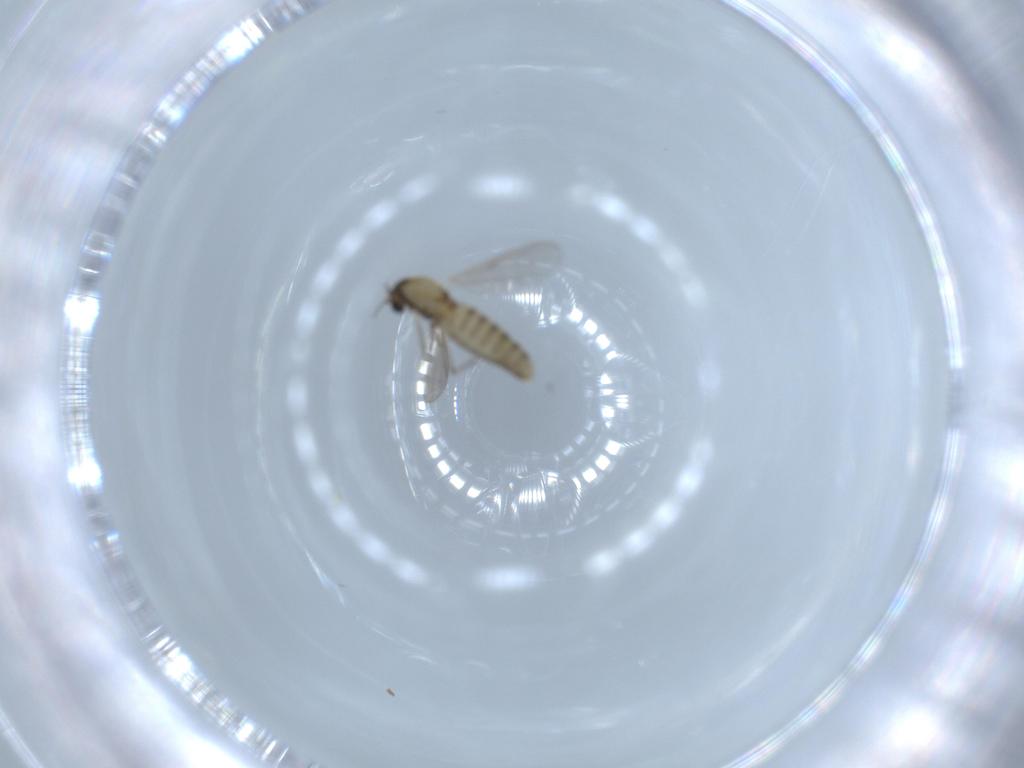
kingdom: Animalia
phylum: Arthropoda
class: Insecta
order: Diptera
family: Chironomidae
